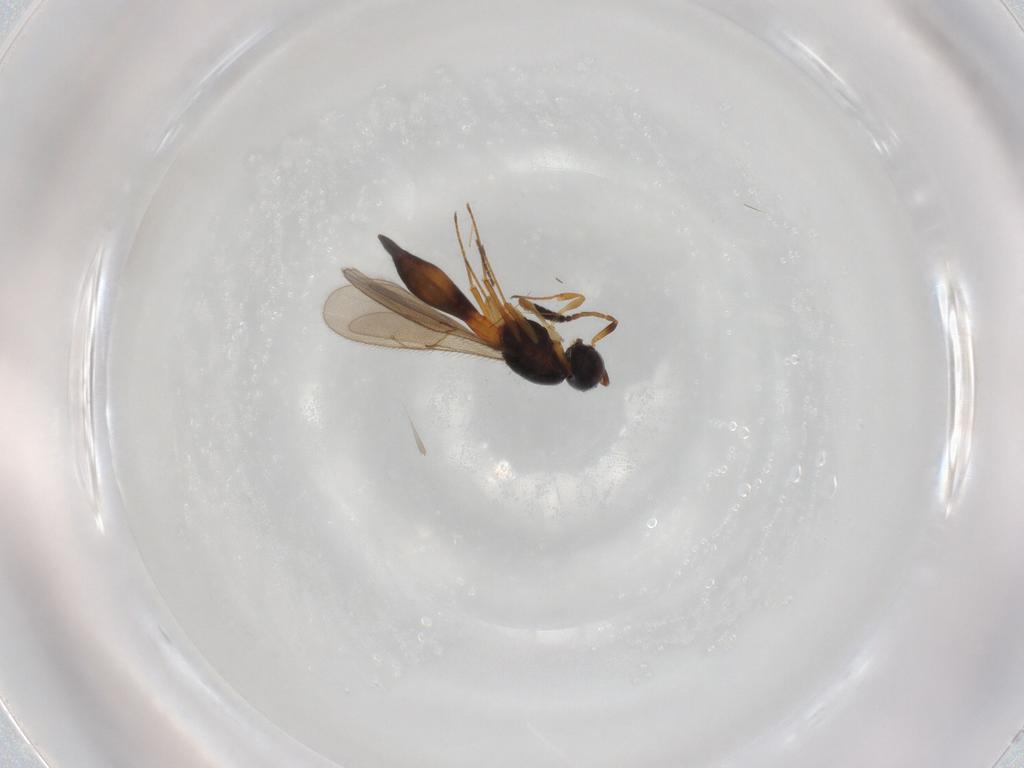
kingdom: Animalia
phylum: Arthropoda
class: Insecta
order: Hymenoptera
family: Scelionidae
